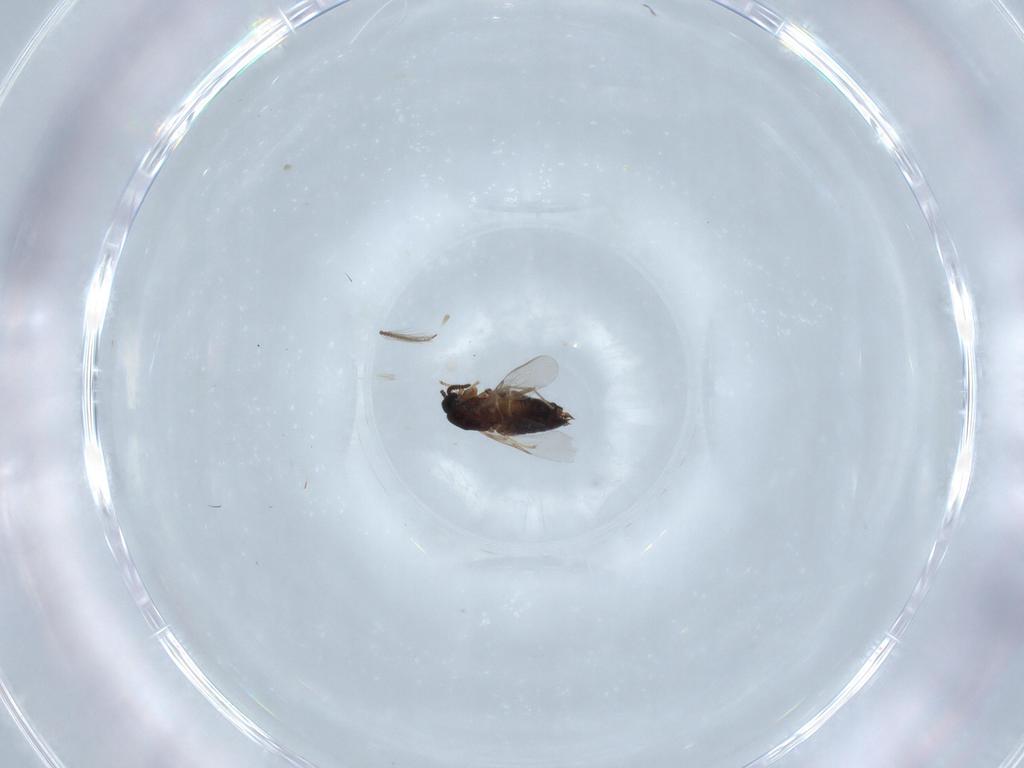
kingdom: Animalia
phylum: Arthropoda
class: Insecta
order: Diptera
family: Scatopsidae
